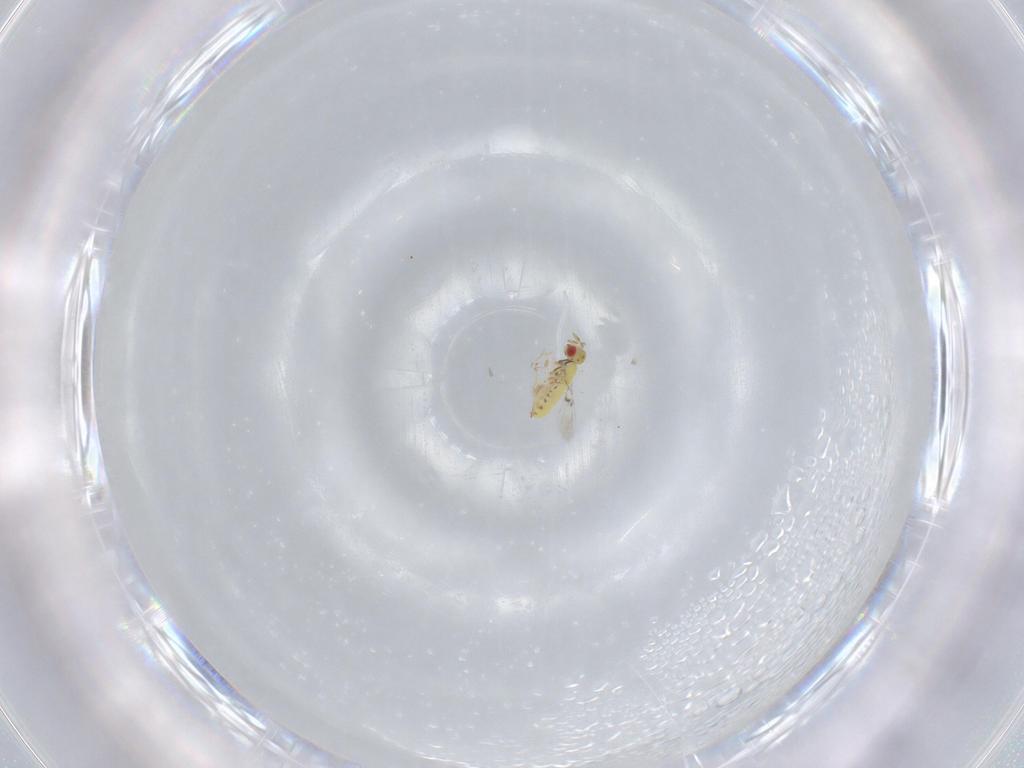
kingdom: Animalia
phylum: Arthropoda
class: Insecta
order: Hymenoptera
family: Trichogrammatidae
